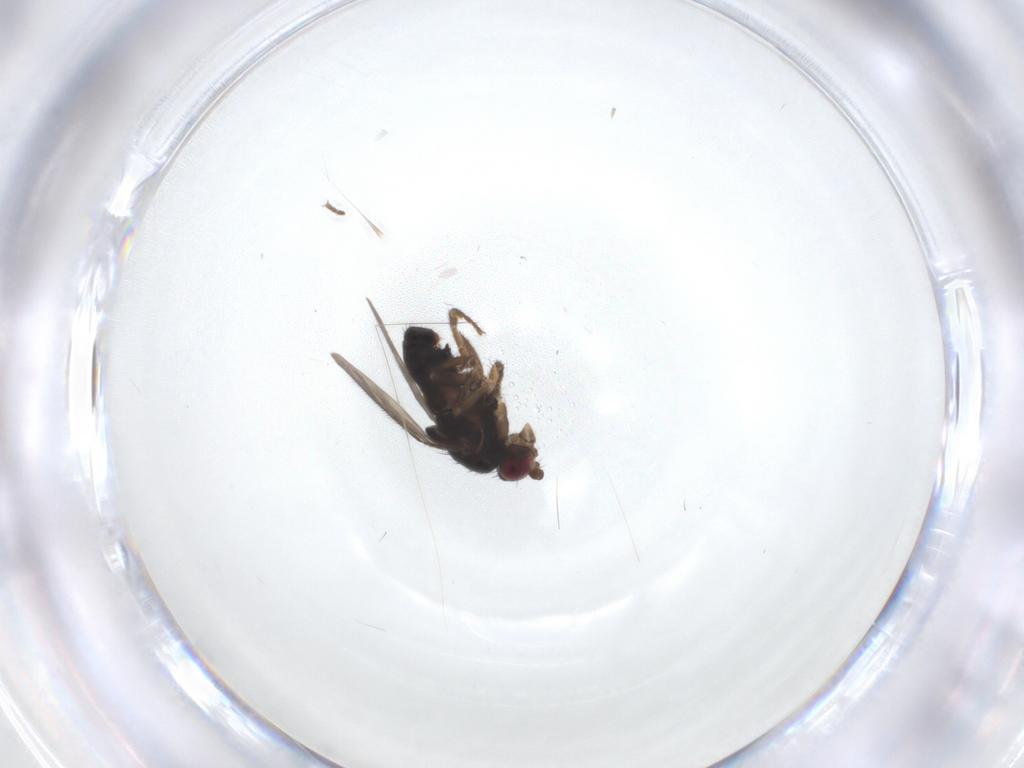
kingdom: Animalia
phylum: Arthropoda
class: Insecta
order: Diptera
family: Sphaeroceridae
